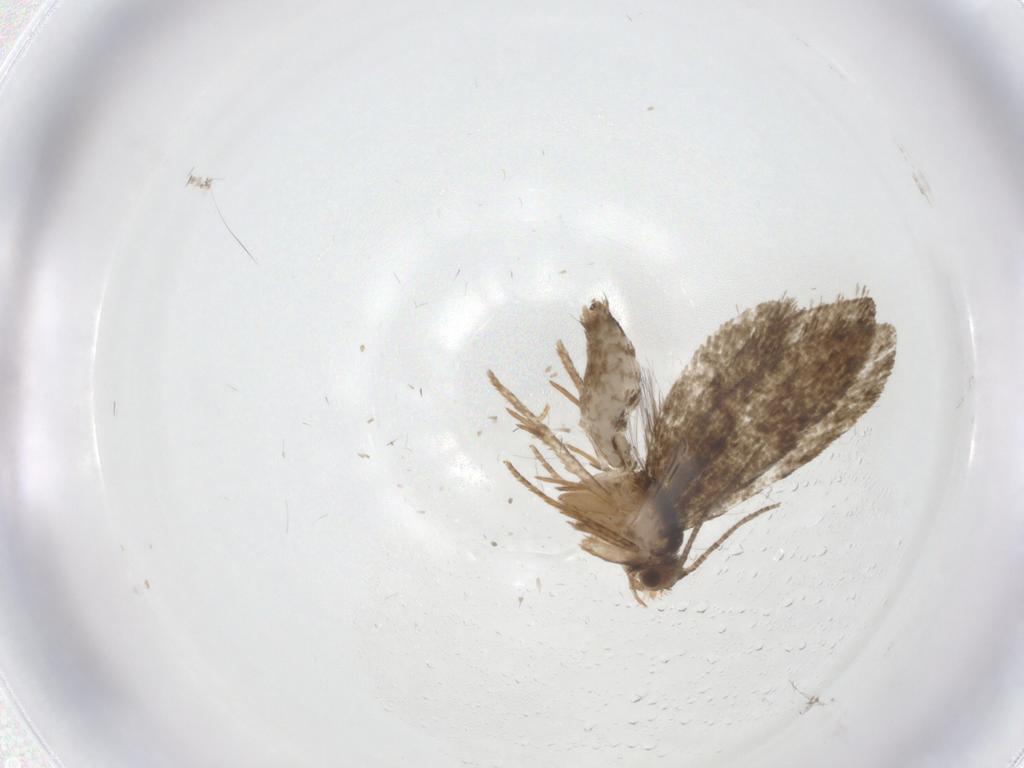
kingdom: Animalia
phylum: Arthropoda
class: Insecta
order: Lepidoptera
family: Tineidae
